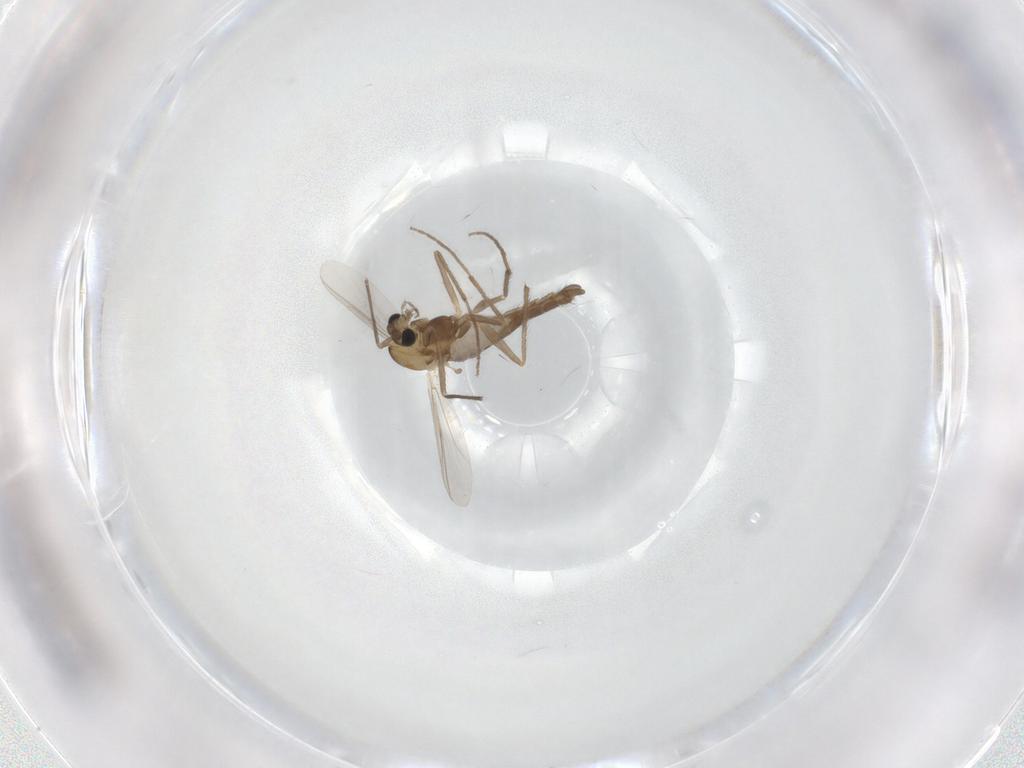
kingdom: Animalia
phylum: Arthropoda
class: Insecta
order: Diptera
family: Chironomidae
